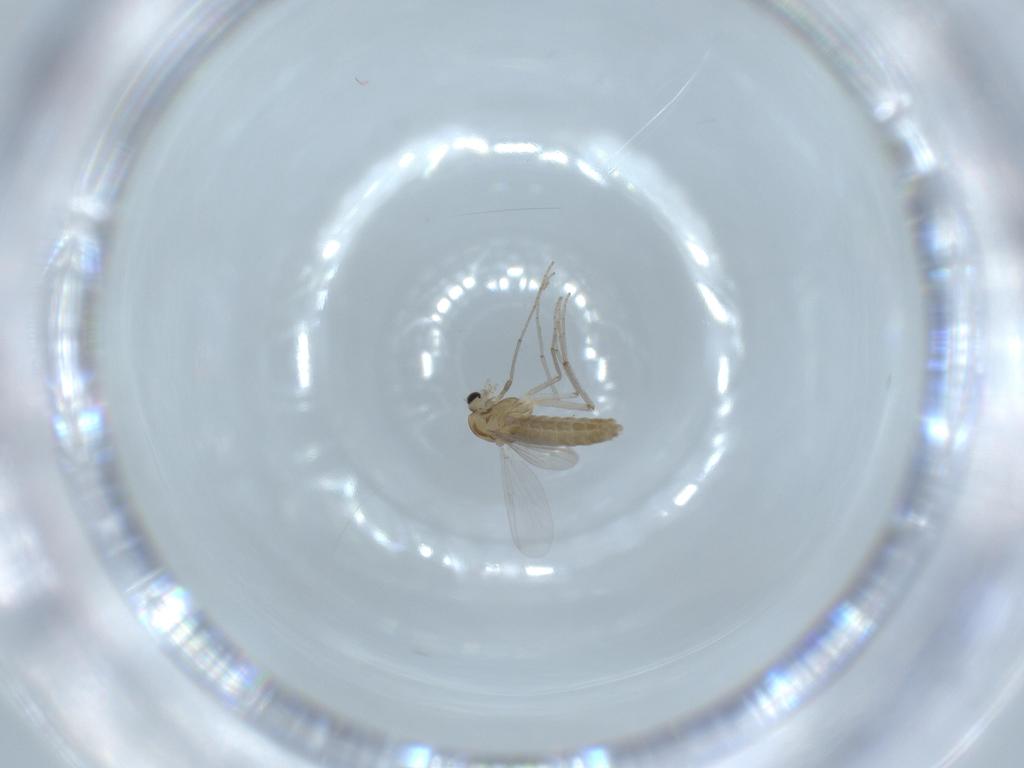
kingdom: Animalia
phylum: Arthropoda
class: Insecta
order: Diptera
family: Chironomidae
